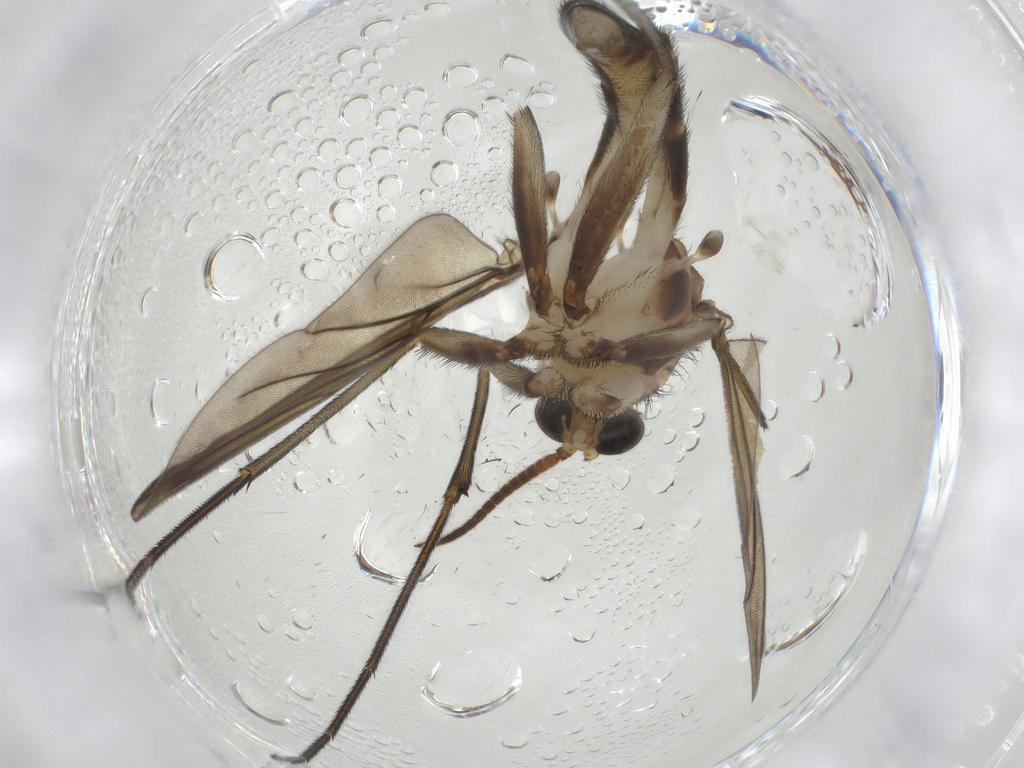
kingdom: Animalia
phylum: Arthropoda
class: Insecta
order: Diptera
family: Phoridae
